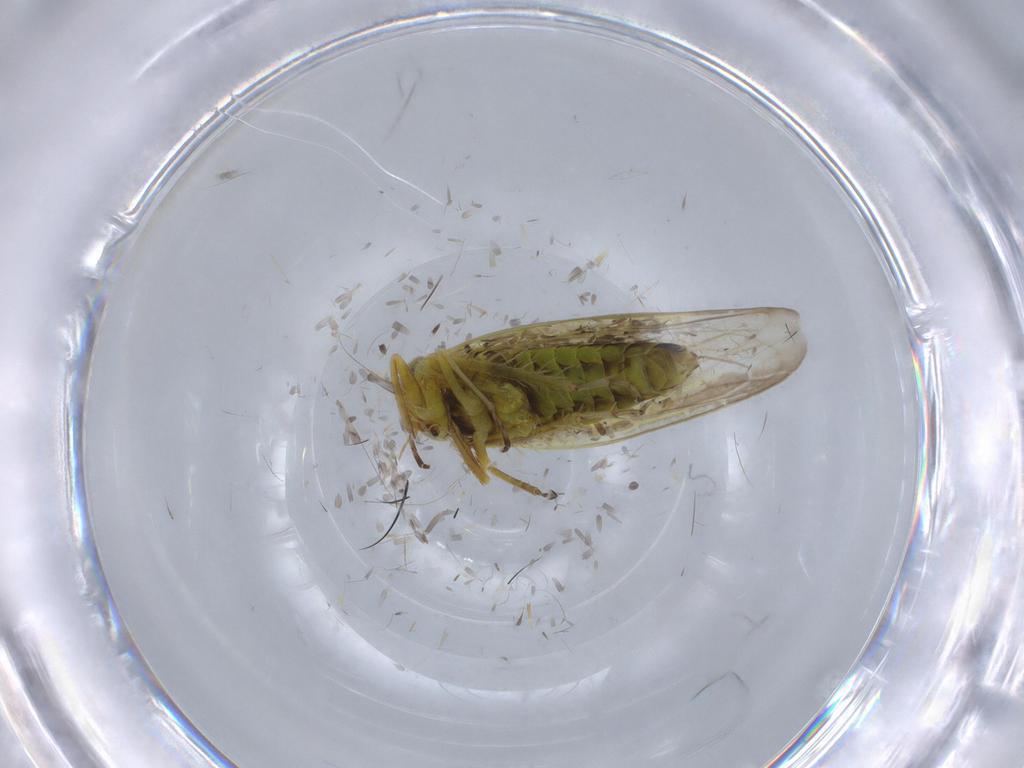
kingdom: Animalia
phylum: Arthropoda
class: Insecta
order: Hemiptera
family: Cicadellidae
